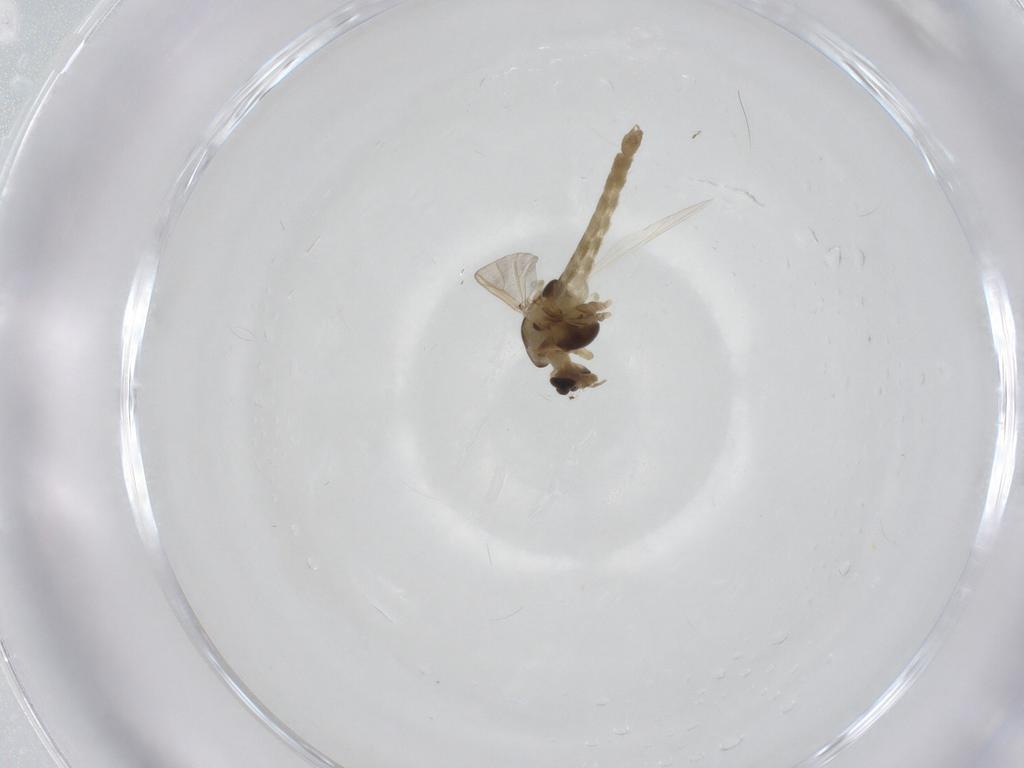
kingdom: Animalia
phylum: Arthropoda
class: Insecta
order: Diptera
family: Chironomidae
